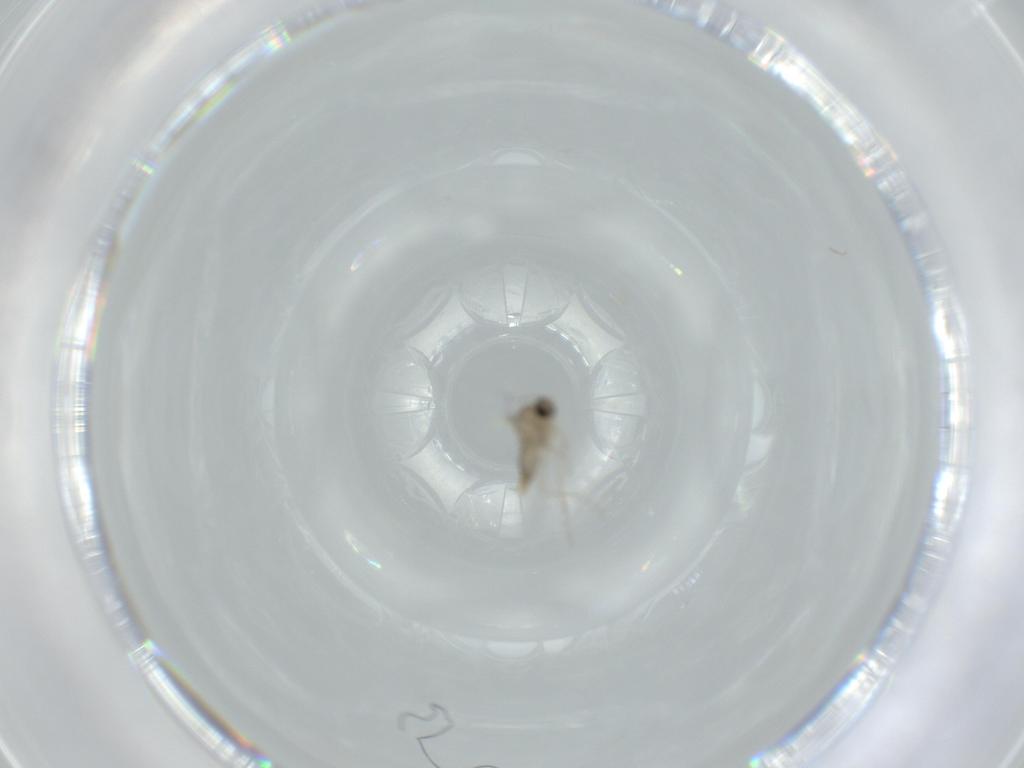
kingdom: Animalia
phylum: Arthropoda
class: Insecta
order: Diptera
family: Cecidomyiidae
